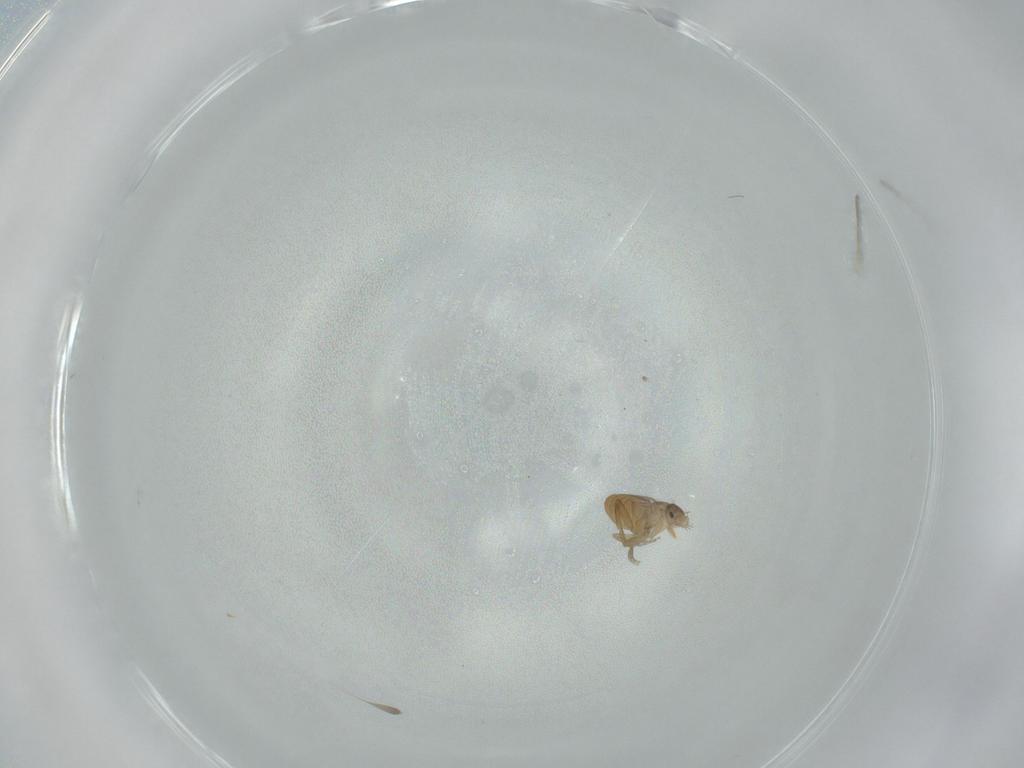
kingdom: Animalia
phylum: Arthropoda
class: Insecta
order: Diptera
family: Phoridae
